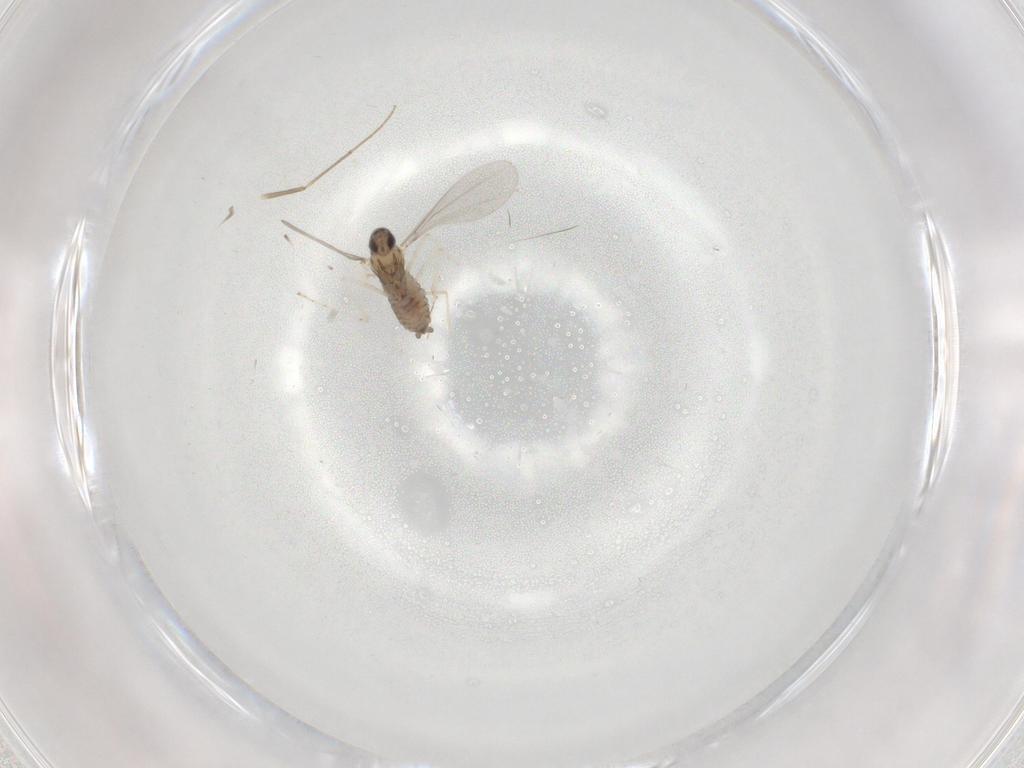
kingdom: Animalia
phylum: Arthropoda
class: Insecta
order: Diptera
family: Chironomidae
